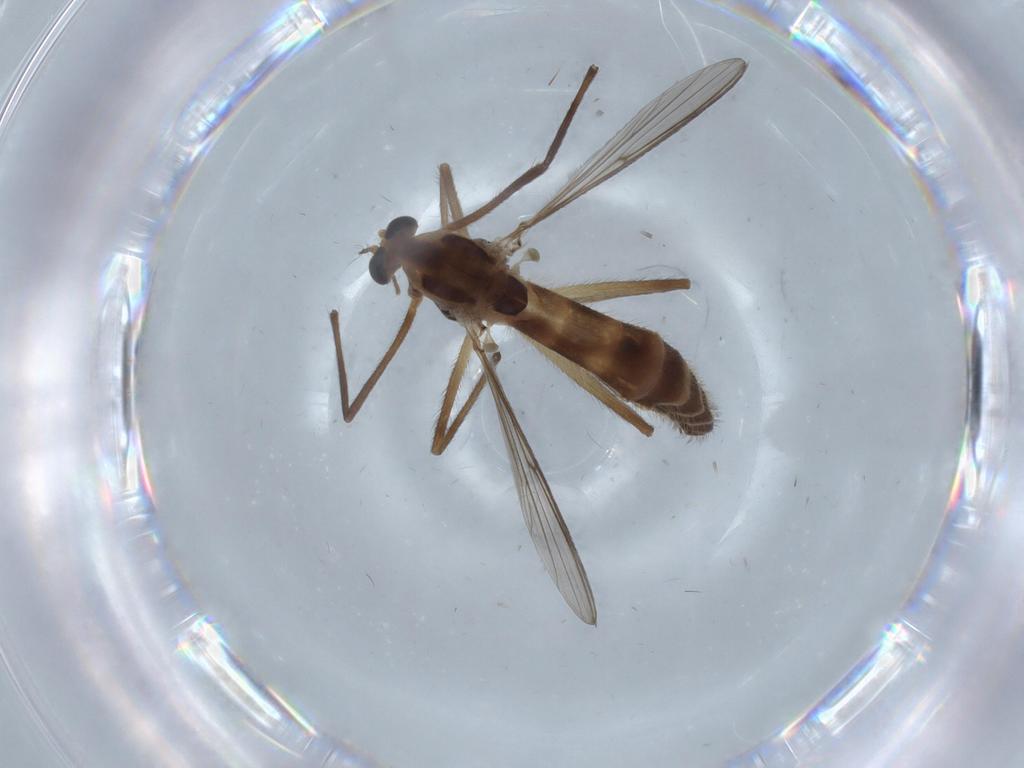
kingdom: Animalia
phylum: Arthropoda
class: Insecta
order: Diptera
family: Chironomidae
